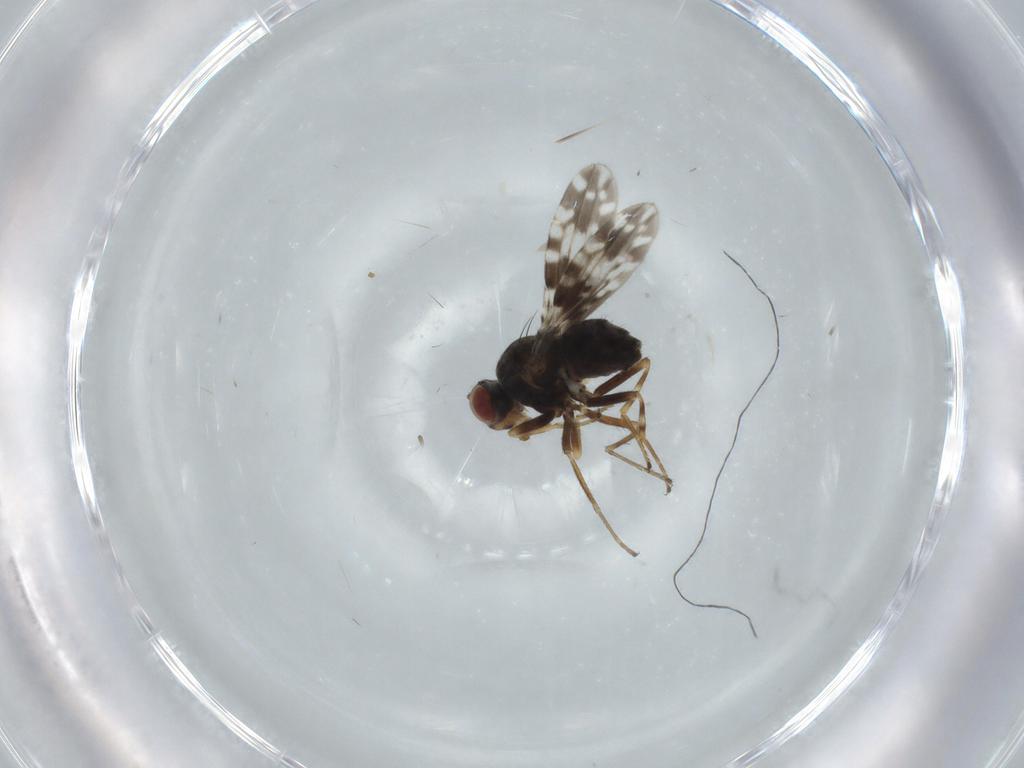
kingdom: Animalia
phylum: Arthropoda
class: Insecta
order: Diptera
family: Ephydridae
